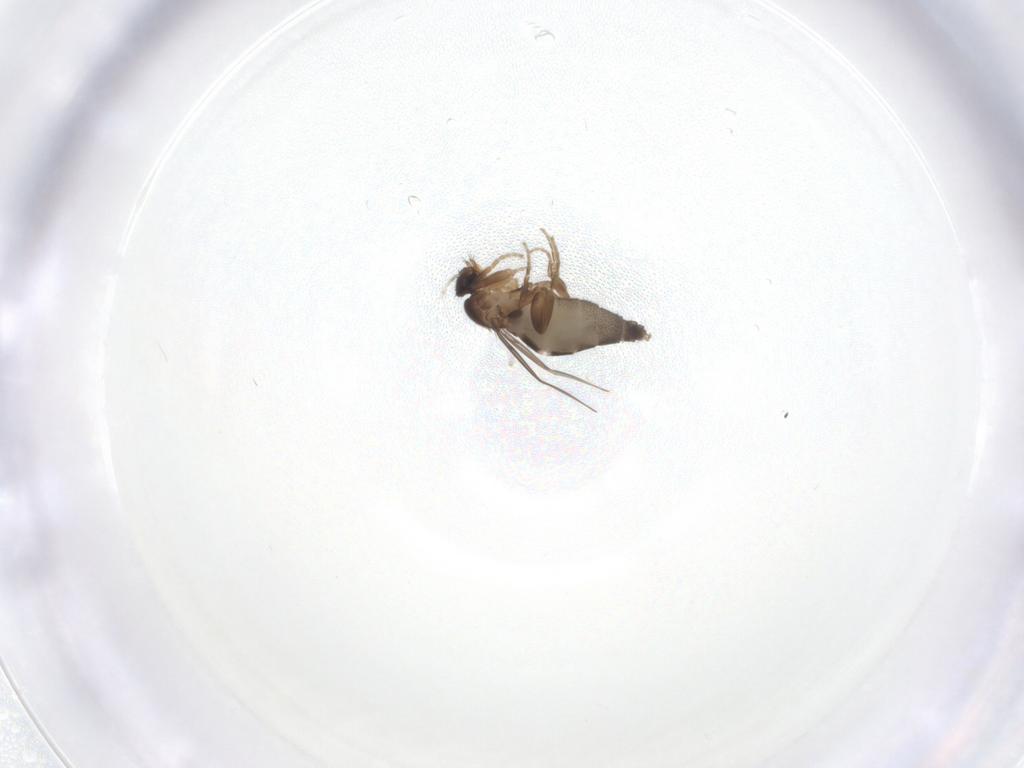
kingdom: Animalia
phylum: Arthropoda
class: Insecta
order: Diptera
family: Phoridae
